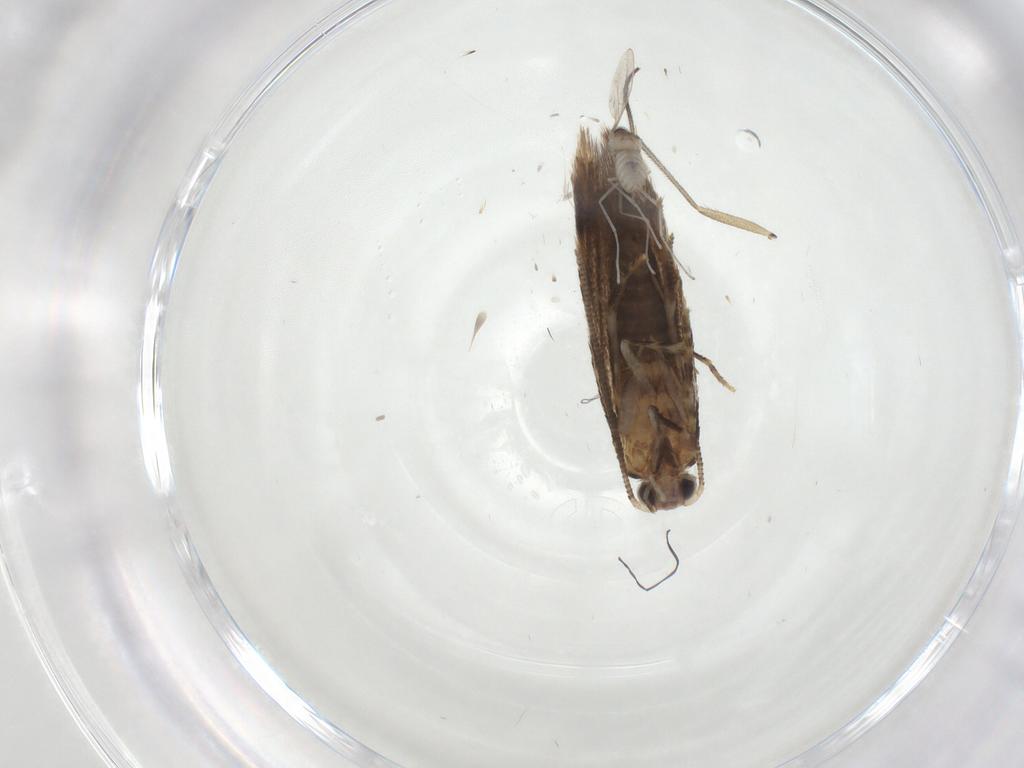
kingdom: Animalia
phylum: Arthropoda
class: Insecta
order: Lepidoptera
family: Tineidae
